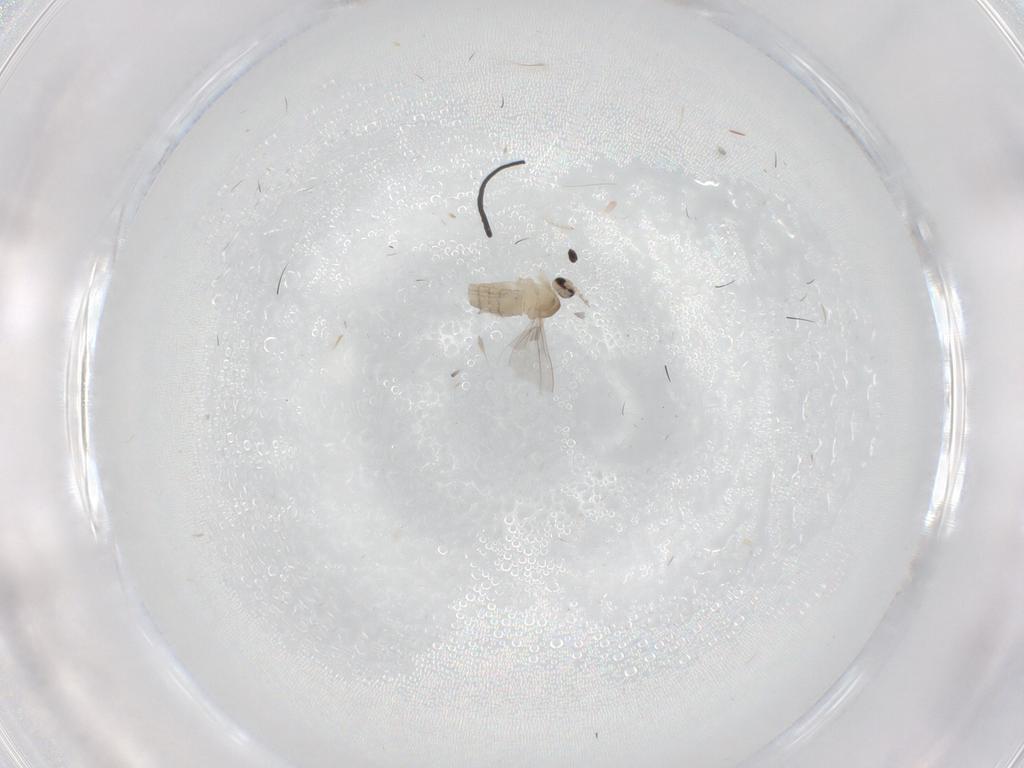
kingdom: Animalia
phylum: Arthropoda
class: Insecta
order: Diptera
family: Cecidomyiidae
